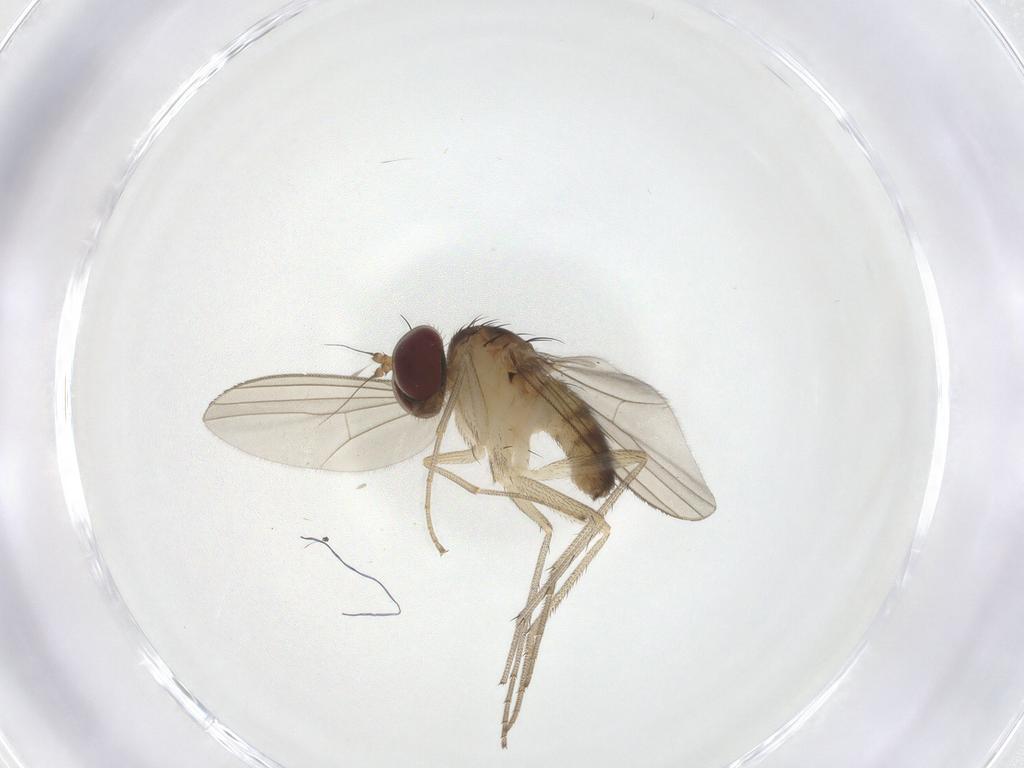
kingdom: Animalia
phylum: Arthropoda
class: Insecta
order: Diptera
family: Dolichopodidae
